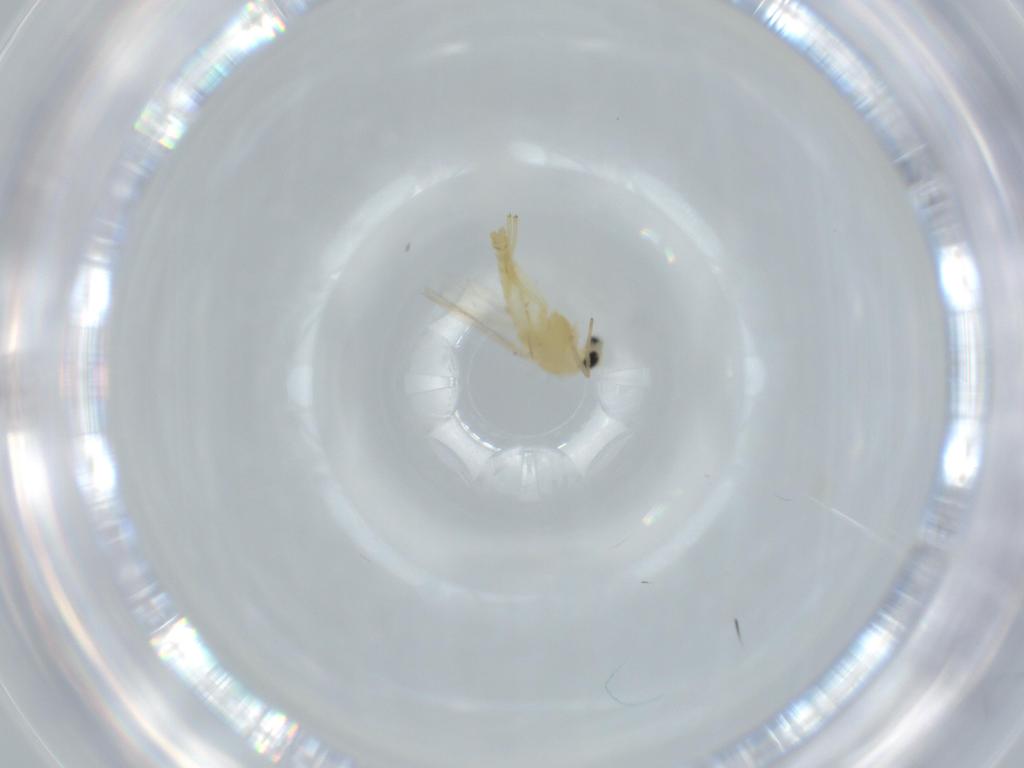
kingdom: Animalia
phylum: Arthropoda
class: Insecta
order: Diptera
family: Chironomidae
